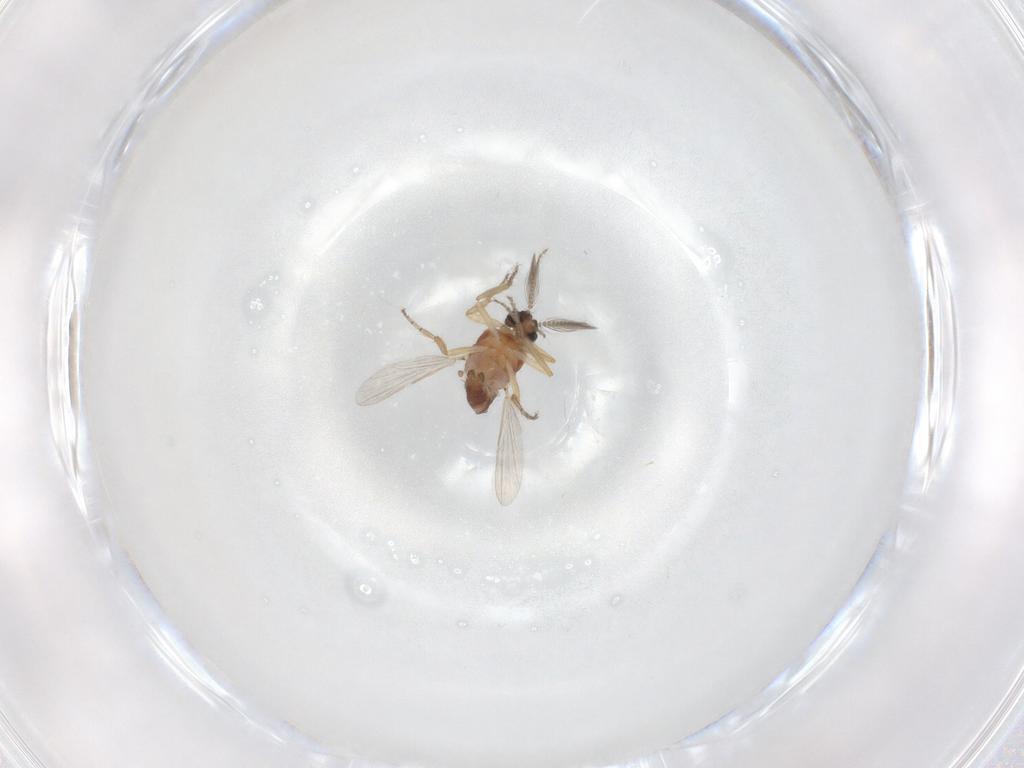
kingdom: Animalia
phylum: Arthropoda
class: Insecta
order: Diptera
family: Ceratopogonidae
